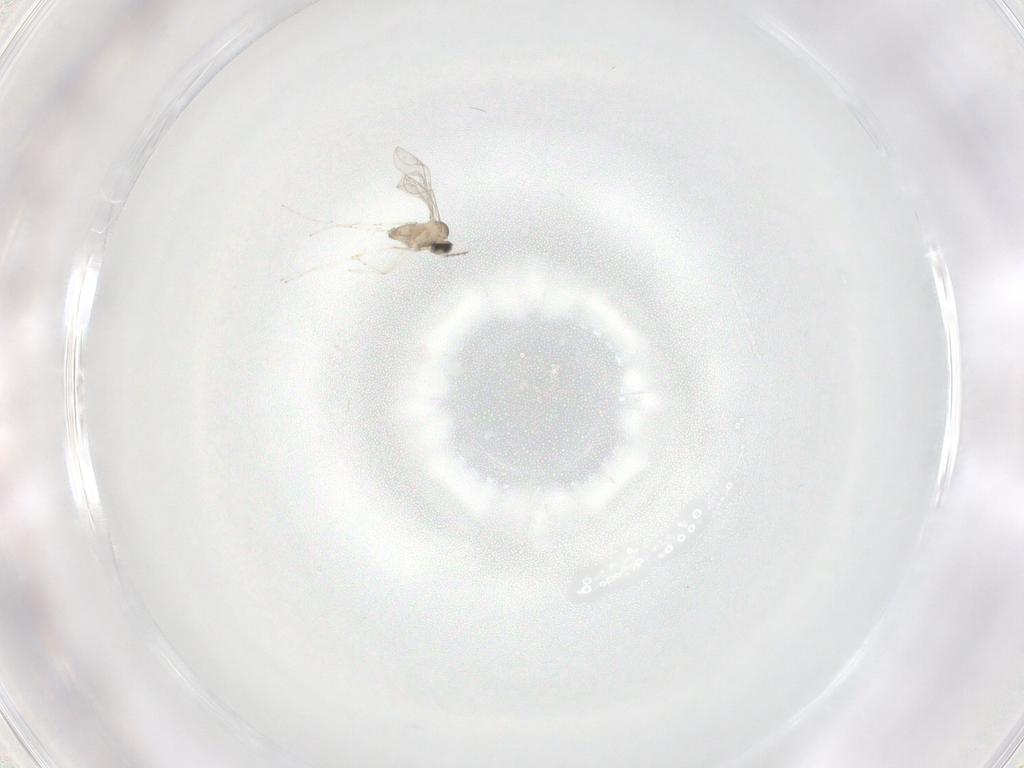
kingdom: Animalia
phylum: Arthropoda
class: Insecta
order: Diptera
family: Cecidomyiidae
